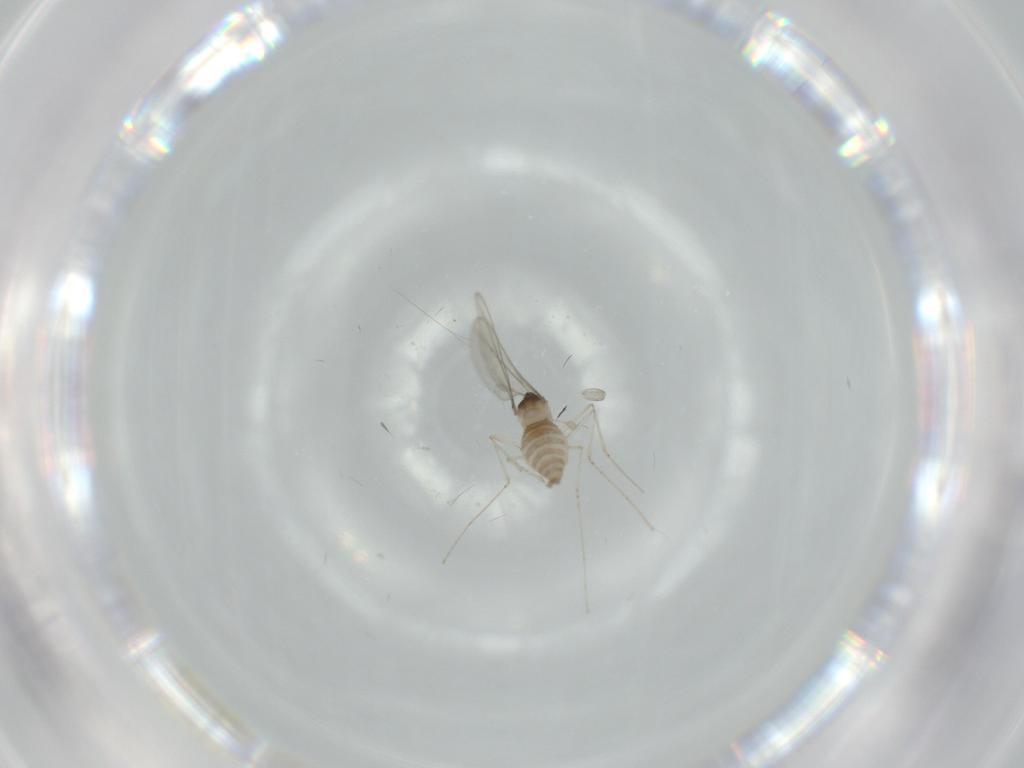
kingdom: Animalia
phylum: Arthropoda
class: Insecta
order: Diptera
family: Cecidomyiidae
